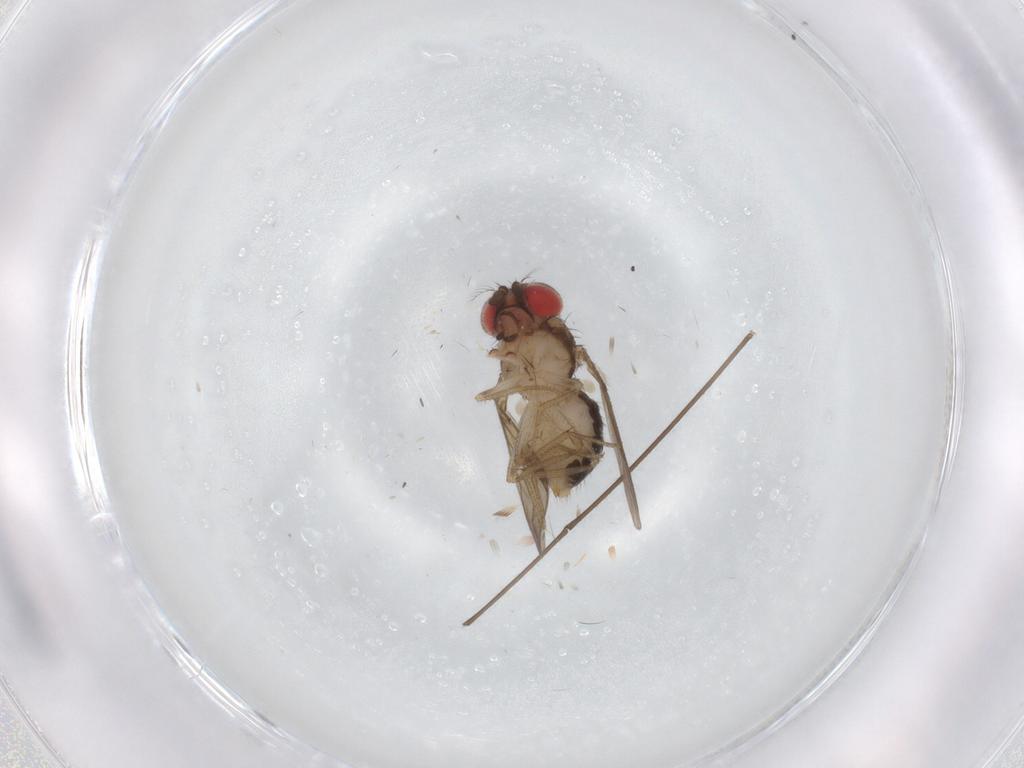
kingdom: Animalia
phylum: Arthropoda
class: Insecta
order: Diptera
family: Drosophilidae
